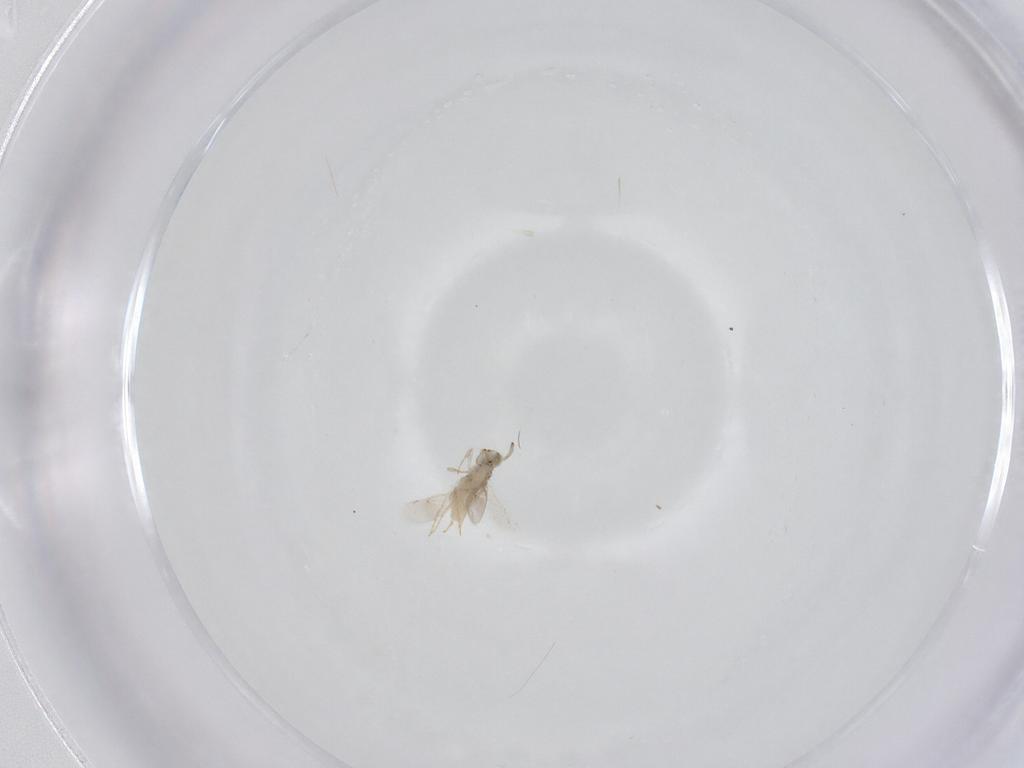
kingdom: Animalia
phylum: Arthropoda
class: Insecta
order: Hymenoptera
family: Aphelinidae
